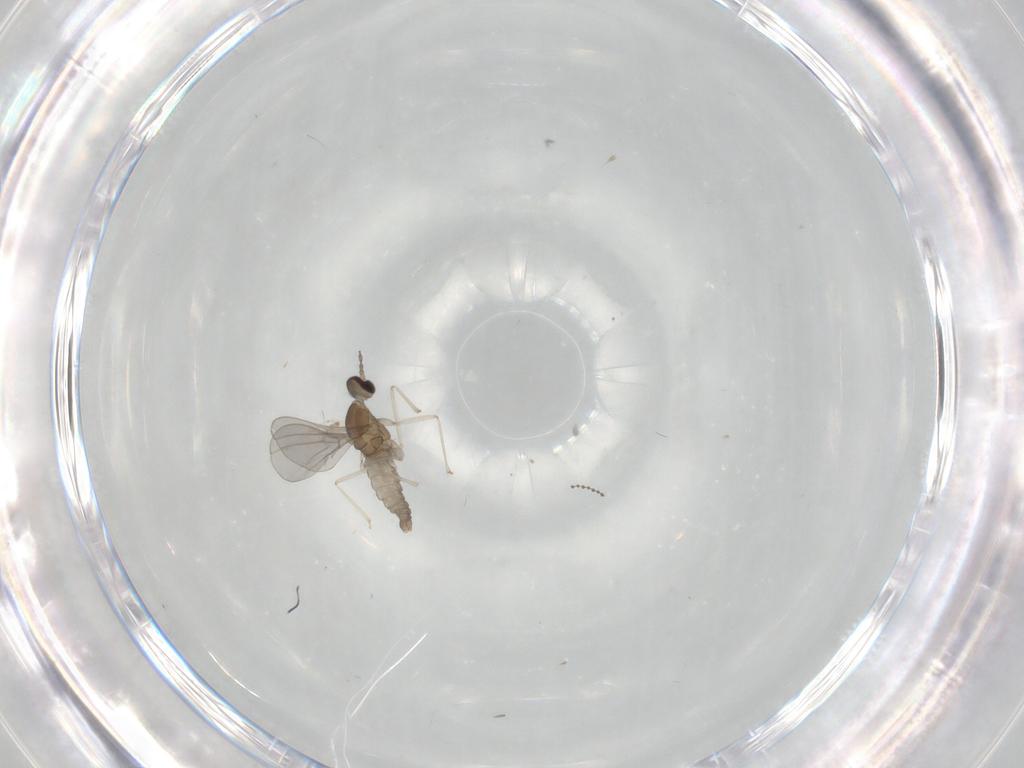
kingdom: Animalia
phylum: Arthropoda
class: Insecta
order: Diptera
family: Cecidomyiidae
